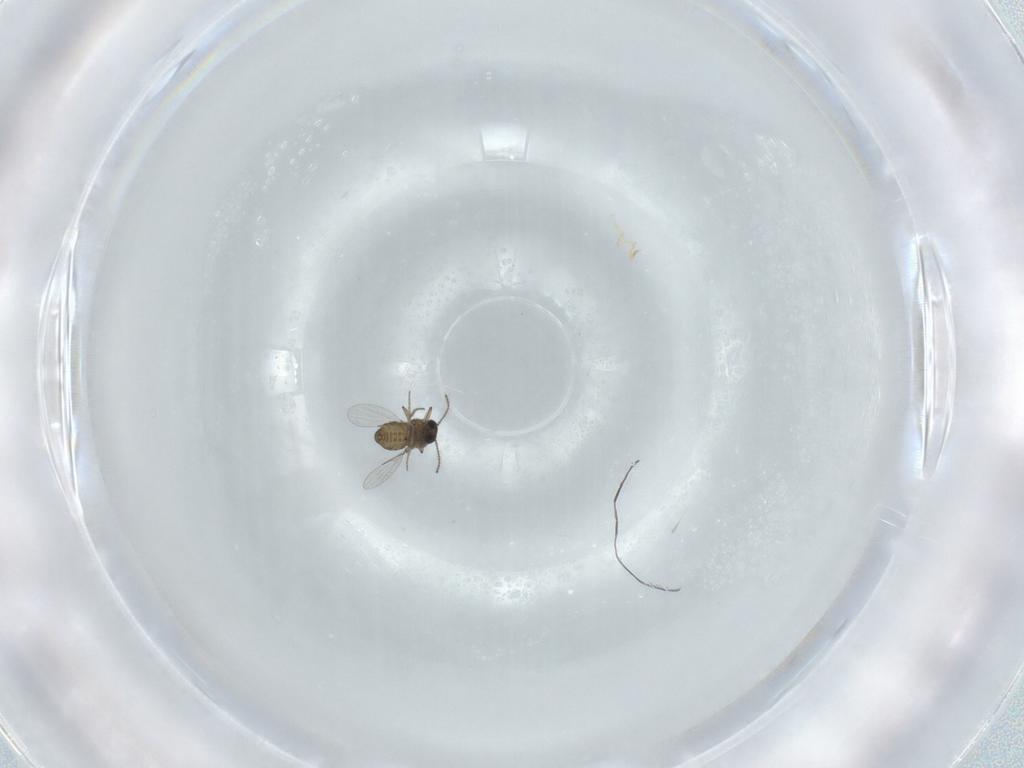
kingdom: Animalia
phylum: Arthropoda
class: Insecta
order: Diptera
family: Ceratopogonidae
